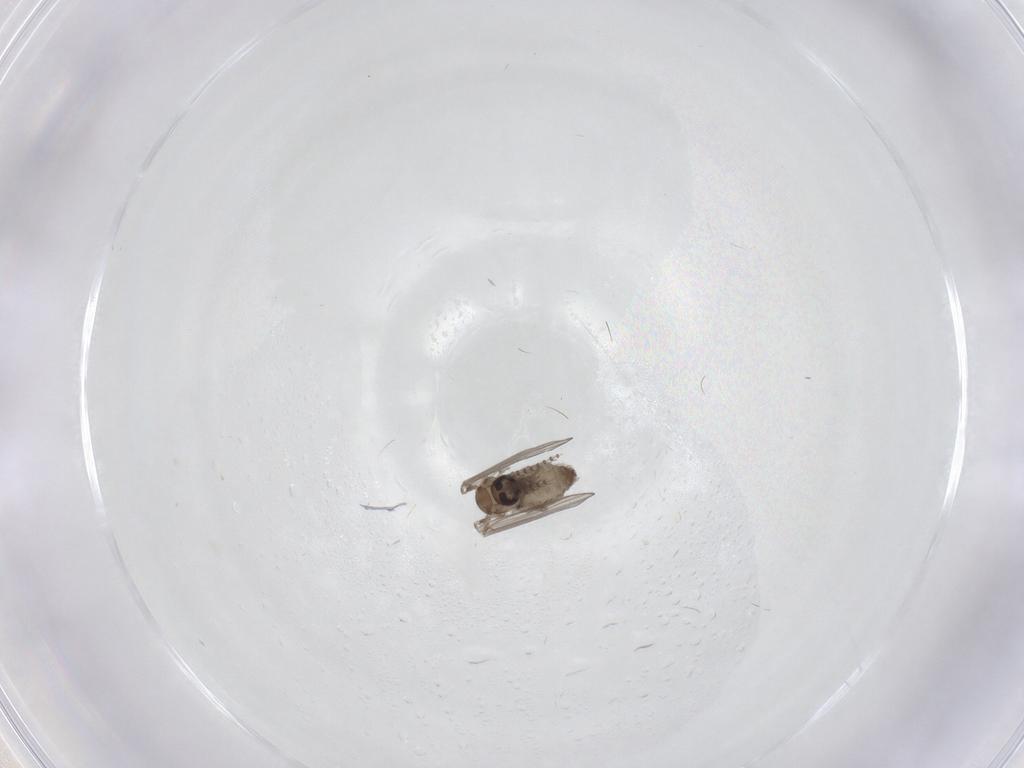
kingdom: Animalia
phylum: Arthropoda
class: Insecta
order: Diptera
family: Psychodidae
